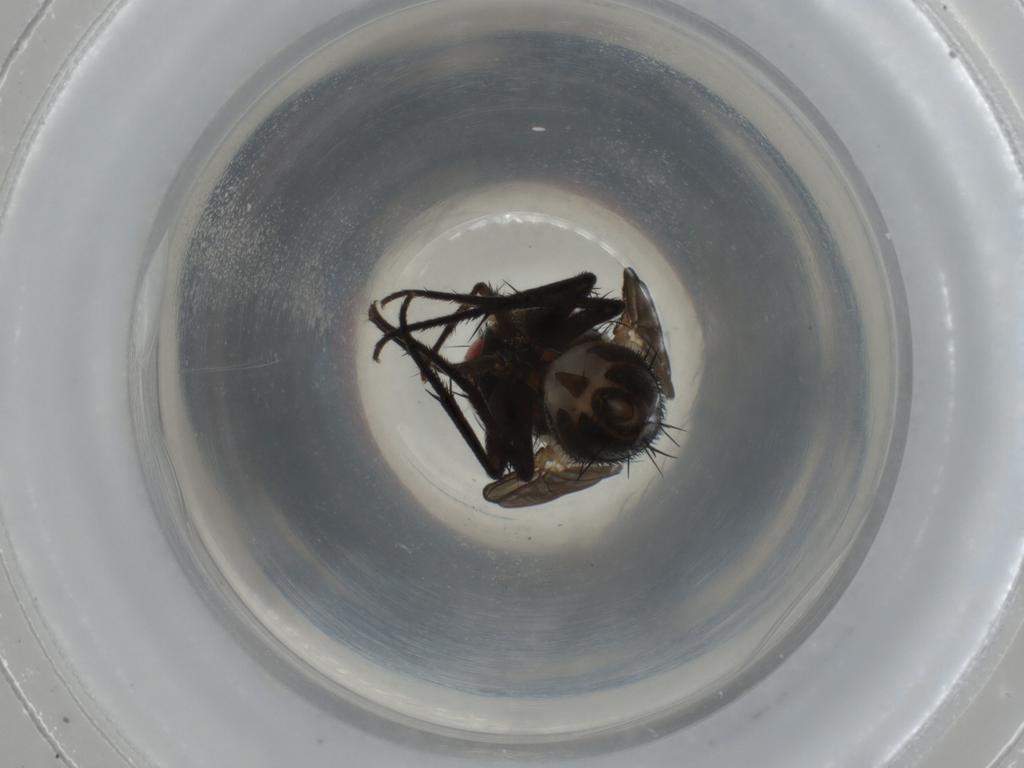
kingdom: Animalia
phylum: Arthropoda
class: Insecta
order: Diptera
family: Sarcophagidae
